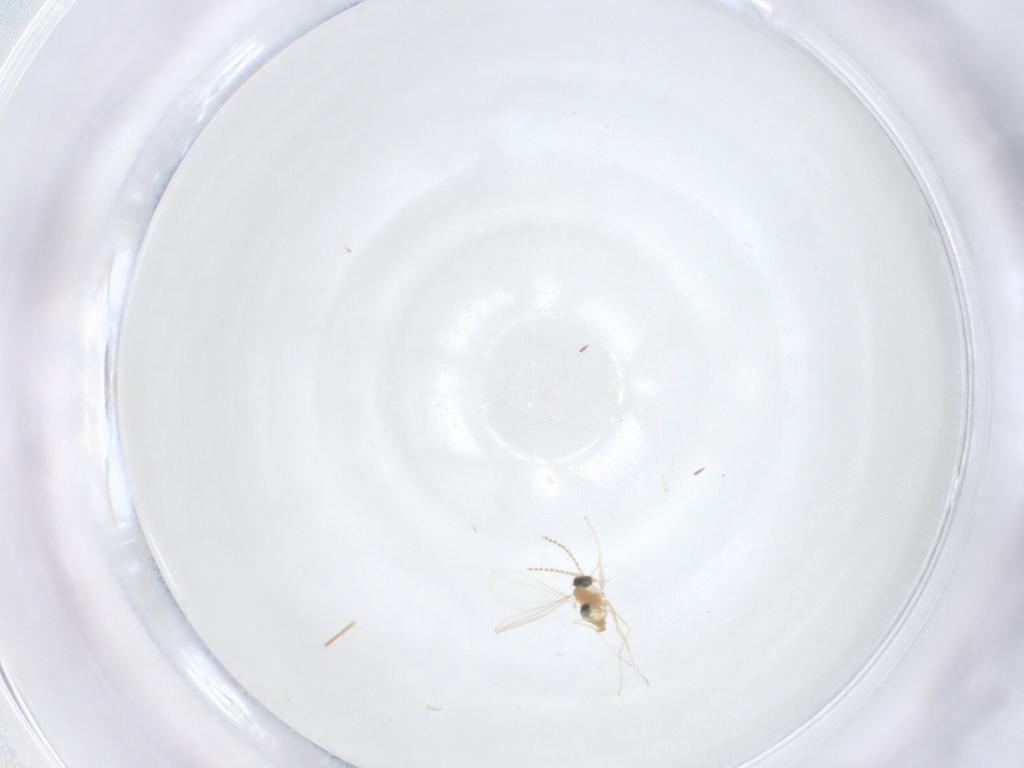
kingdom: Animalia
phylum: Arthropoda
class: Insecta
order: Diptera
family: Cecidomyiidae
